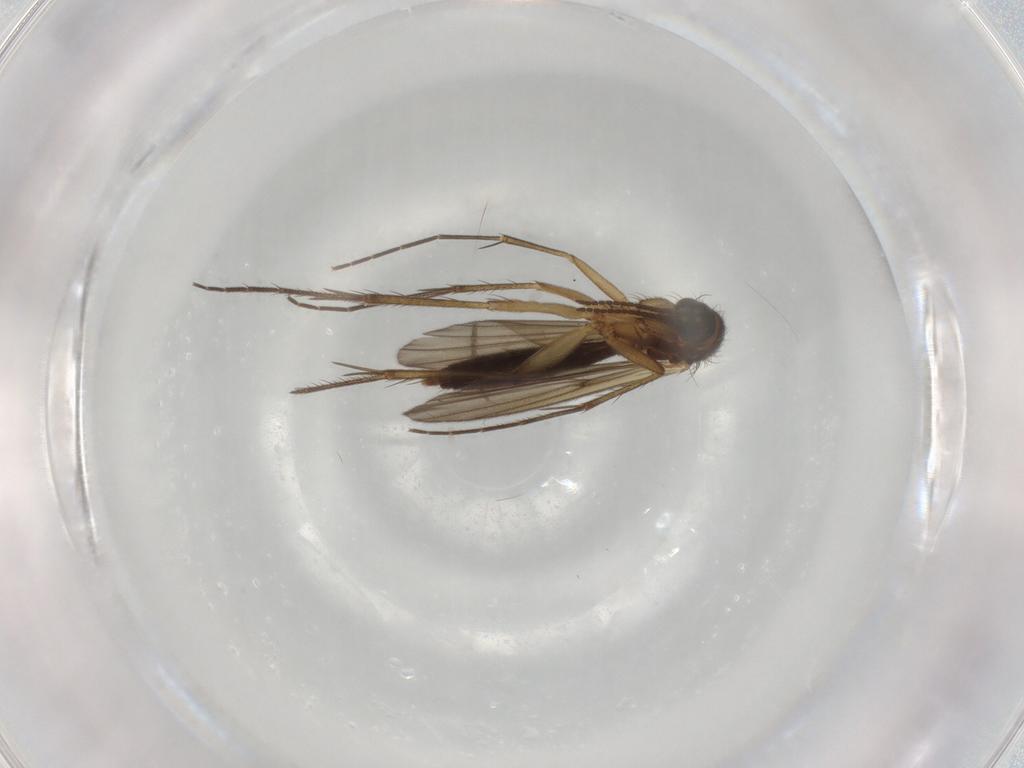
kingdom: Animalia
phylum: Arthropoda
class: Insecta
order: Diptera
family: Mycetophilidae
